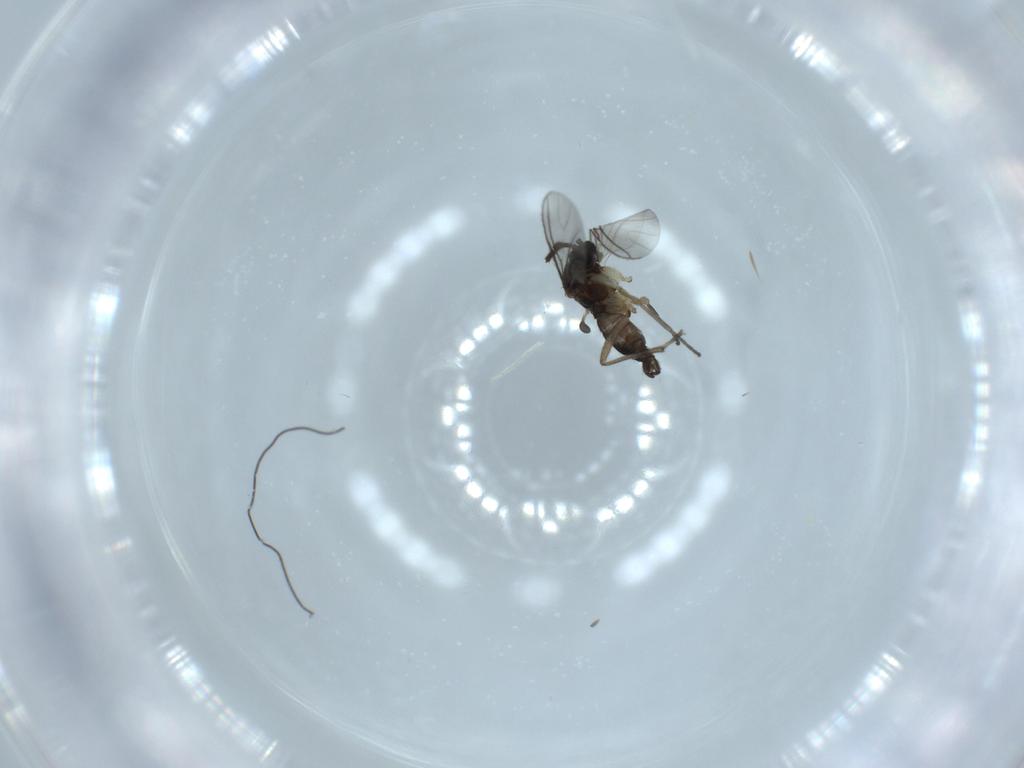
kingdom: Animalia
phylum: Arthropoda
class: Insecta
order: Diptera
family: Sciaridae
